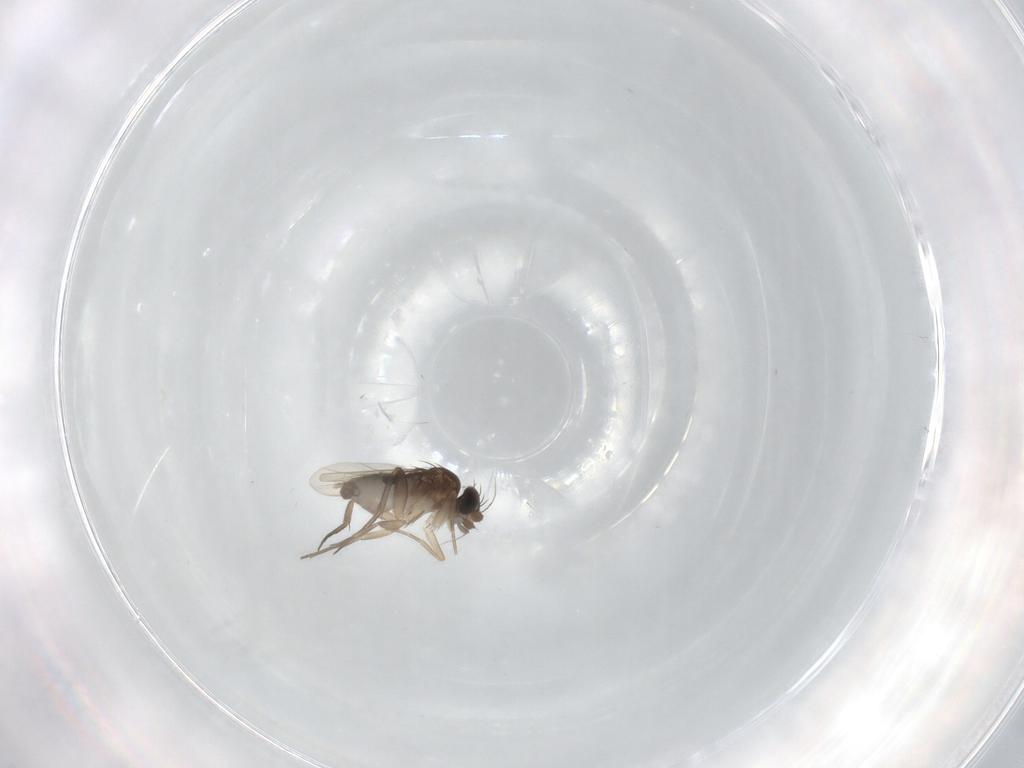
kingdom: Animalia
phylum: Arthropoda
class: Insecta
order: Diptera
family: Phoridae
